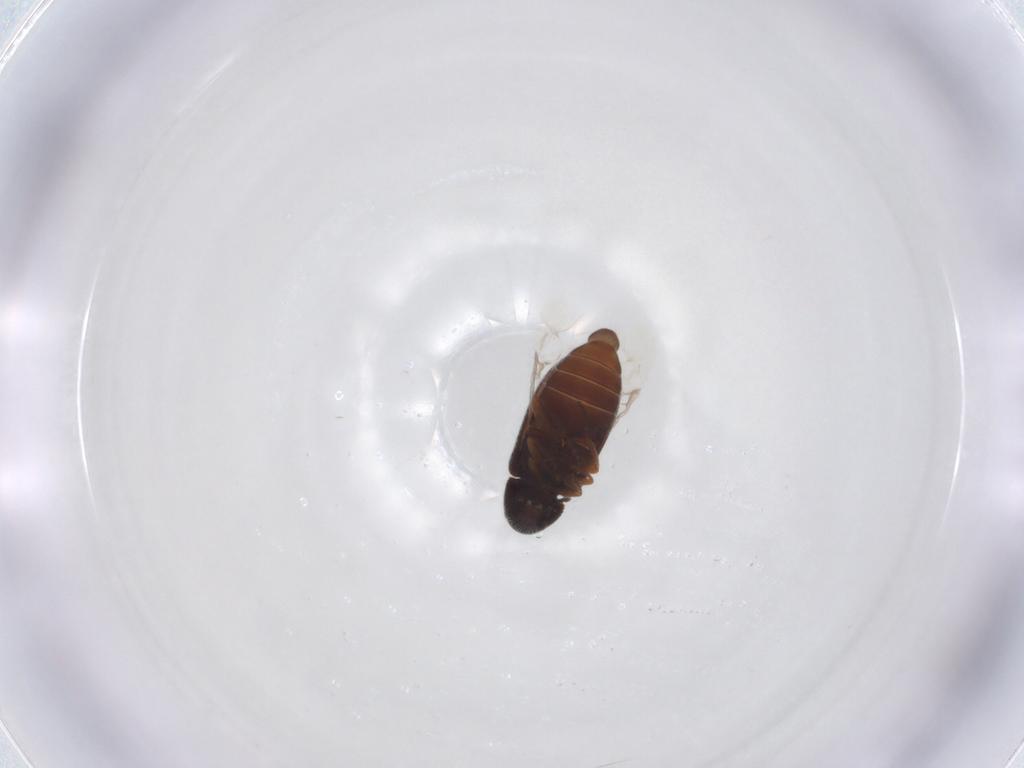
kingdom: Animalia
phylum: Arthropoda
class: Insecta
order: Coleoptera
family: Rhadalidae
